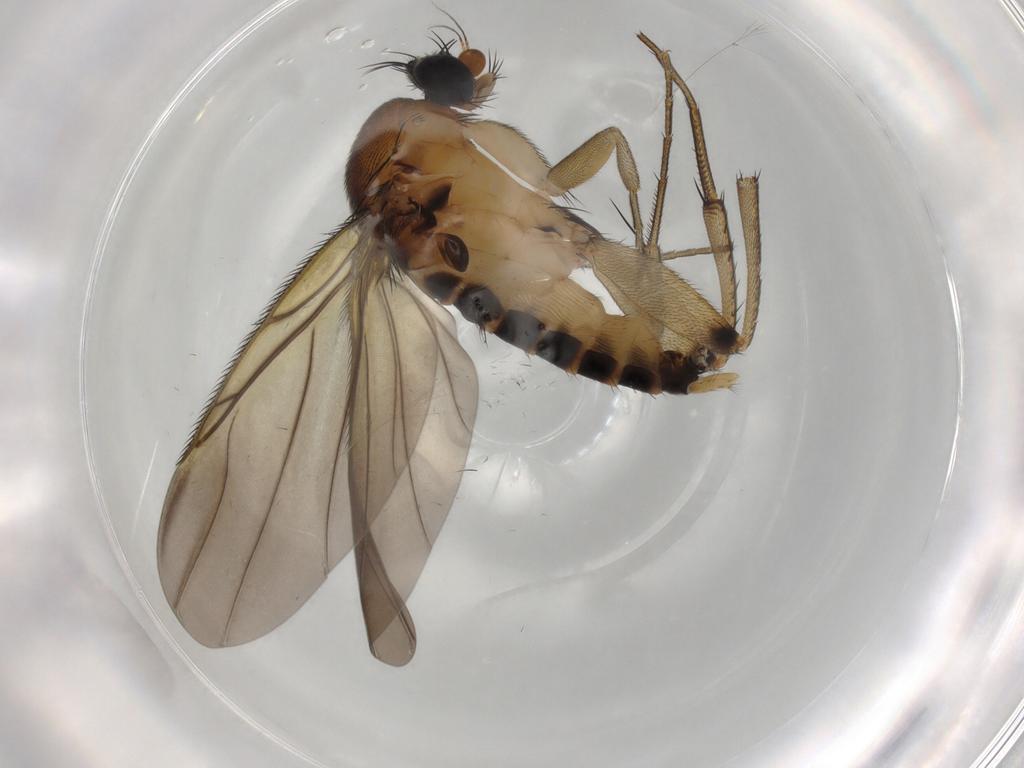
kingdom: Animalia
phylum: Arthropoda
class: Insecta
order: Diptera
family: Phoridae
